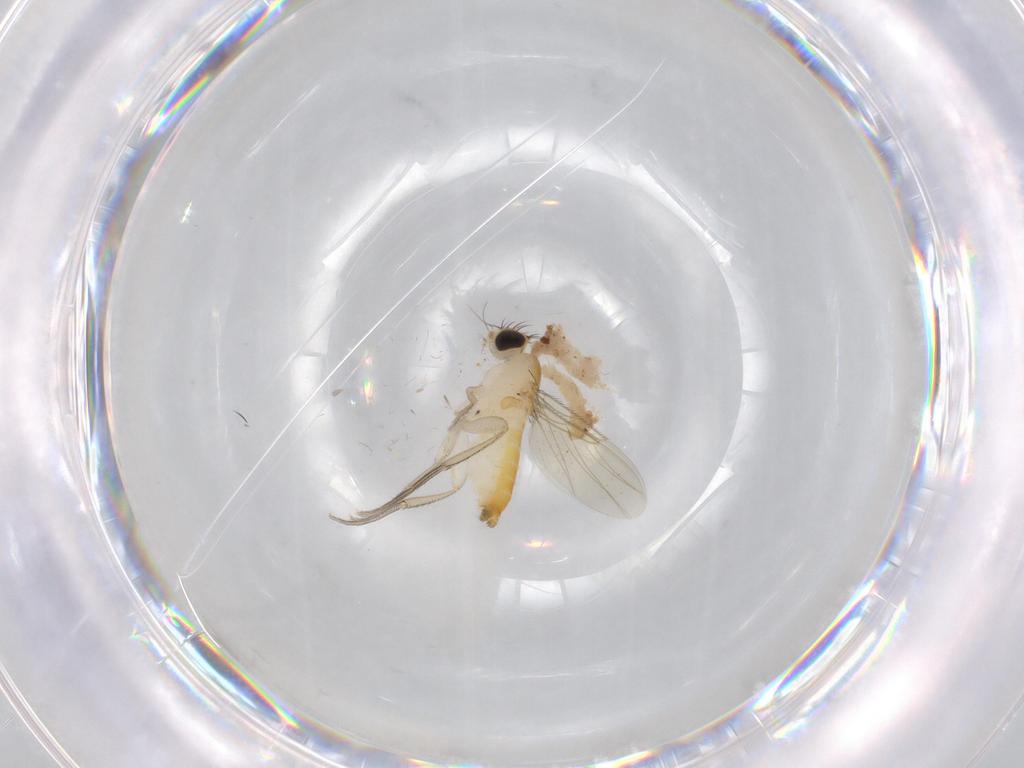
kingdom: Animalia
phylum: Arthropoda
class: Insecta
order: Diptera
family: Phoridae
